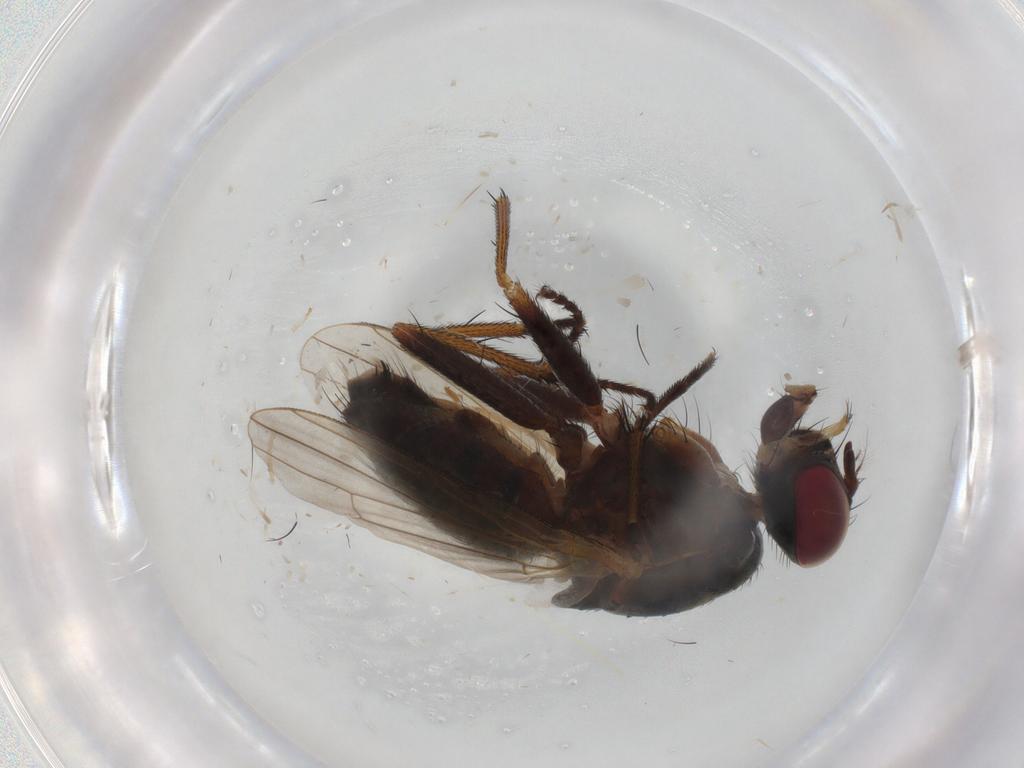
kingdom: Animalia
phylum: Arthropoda
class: Insecta
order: Diptera
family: Muscidae
